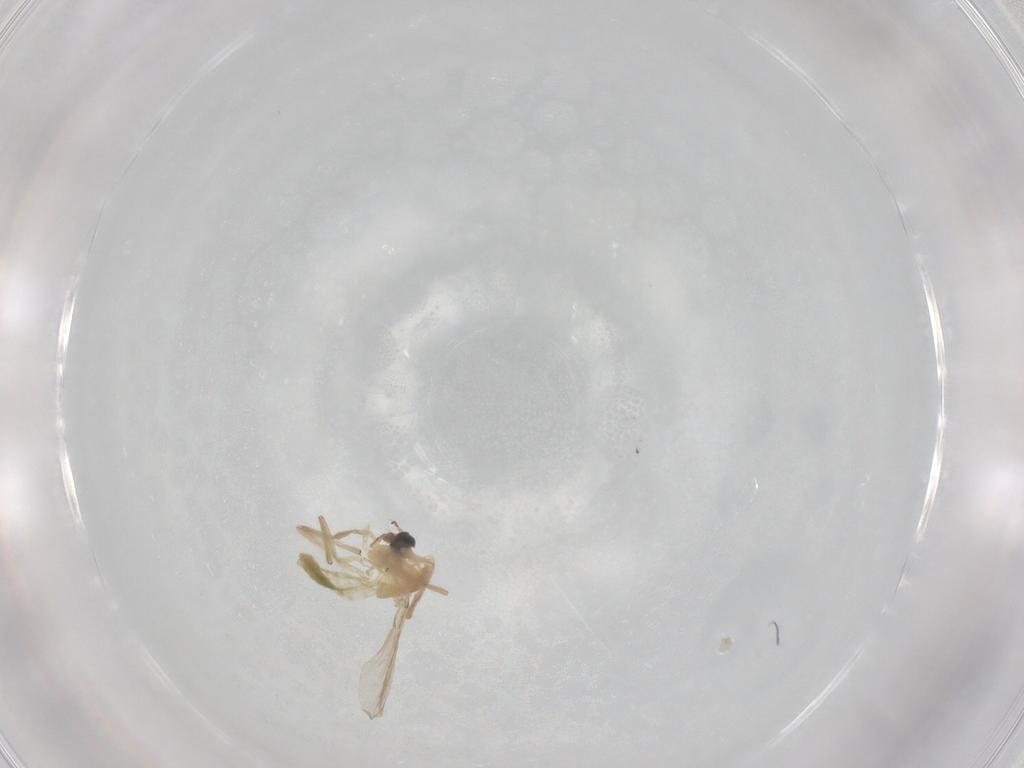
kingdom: Animalia
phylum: Arthropoda
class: Insecta
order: Diptera
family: Chironomidae
